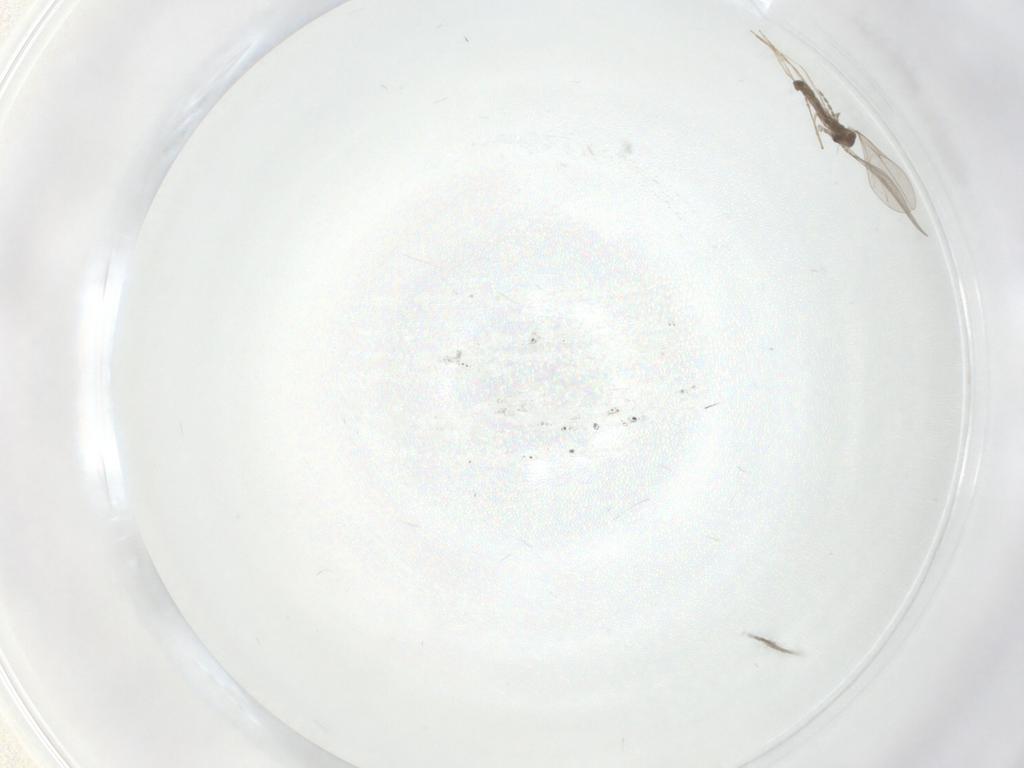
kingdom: Animalia
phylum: Arthropoda
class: Insecta
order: Diptera
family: Cecidomyiidae
